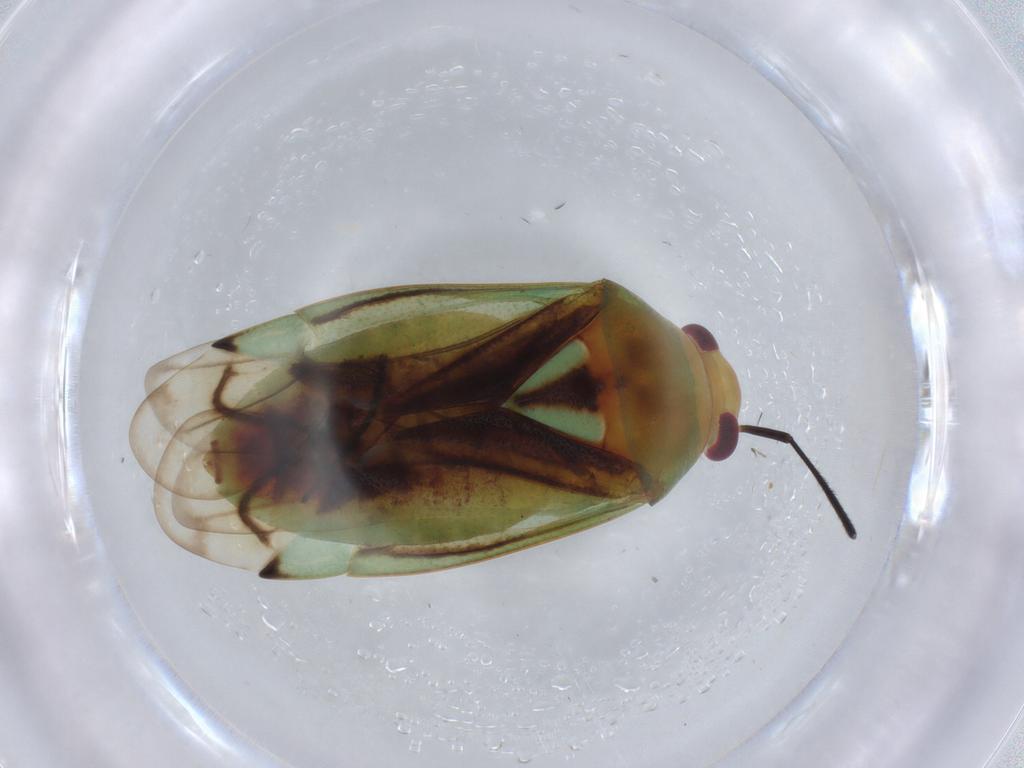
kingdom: Animalia
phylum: Arthropoda
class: Insecta
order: Hemiptera
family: Miridae
